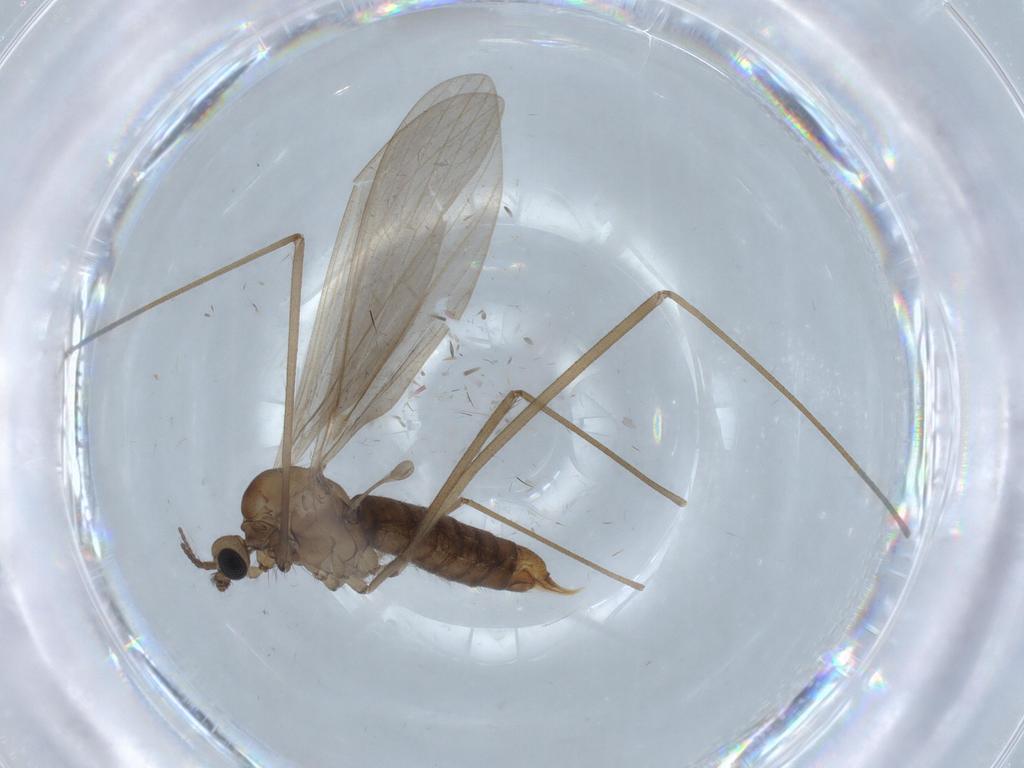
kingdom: Animalia
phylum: Arthropoda
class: Insecta
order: Diptera
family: Limoniidae
